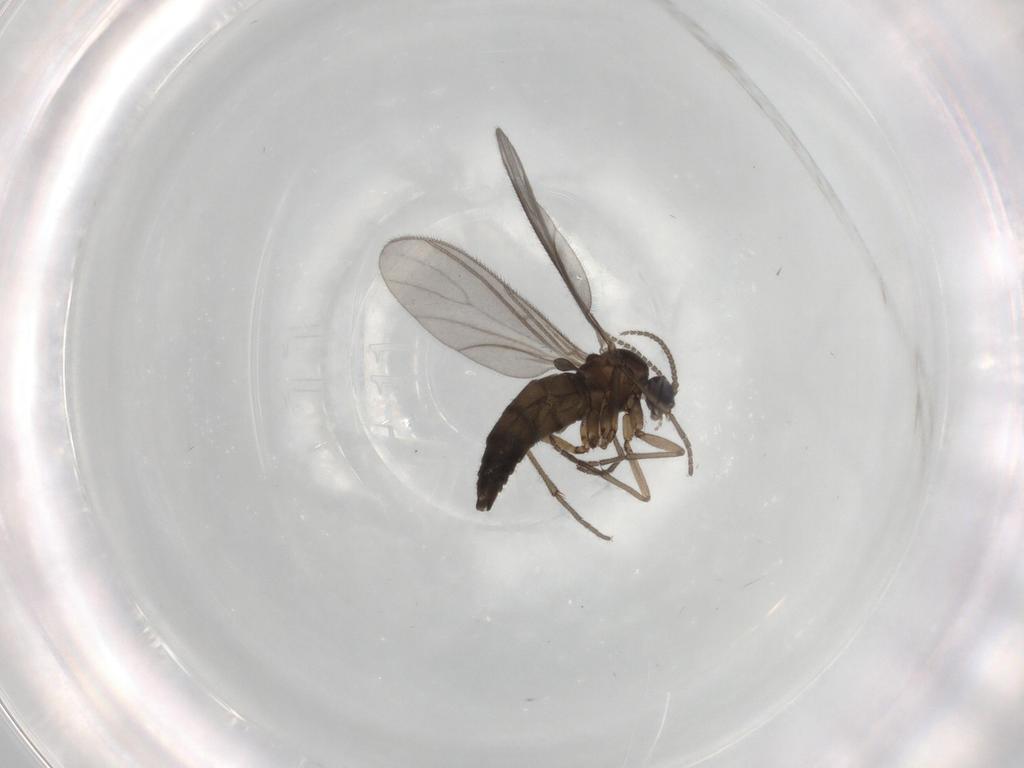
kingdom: Animalia
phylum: Arthropoda
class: Insecta
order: Diptera
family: Sciaridae
